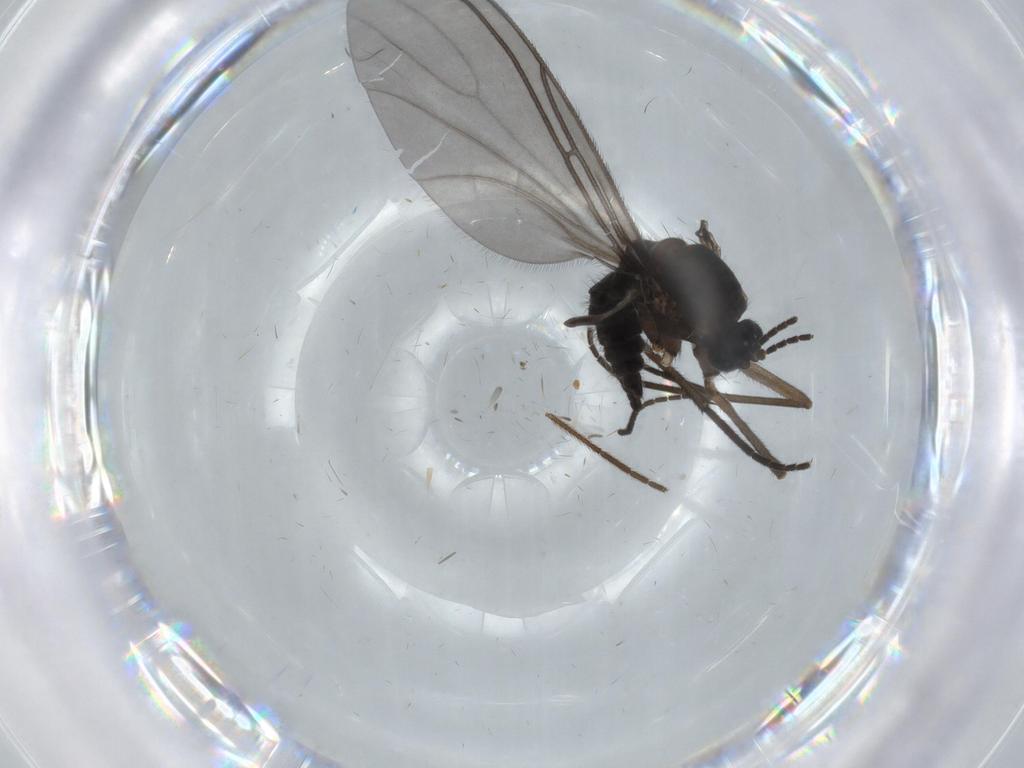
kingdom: Animalia
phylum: Arthropoda
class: Insecta
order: Diptera
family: Sciaridae
